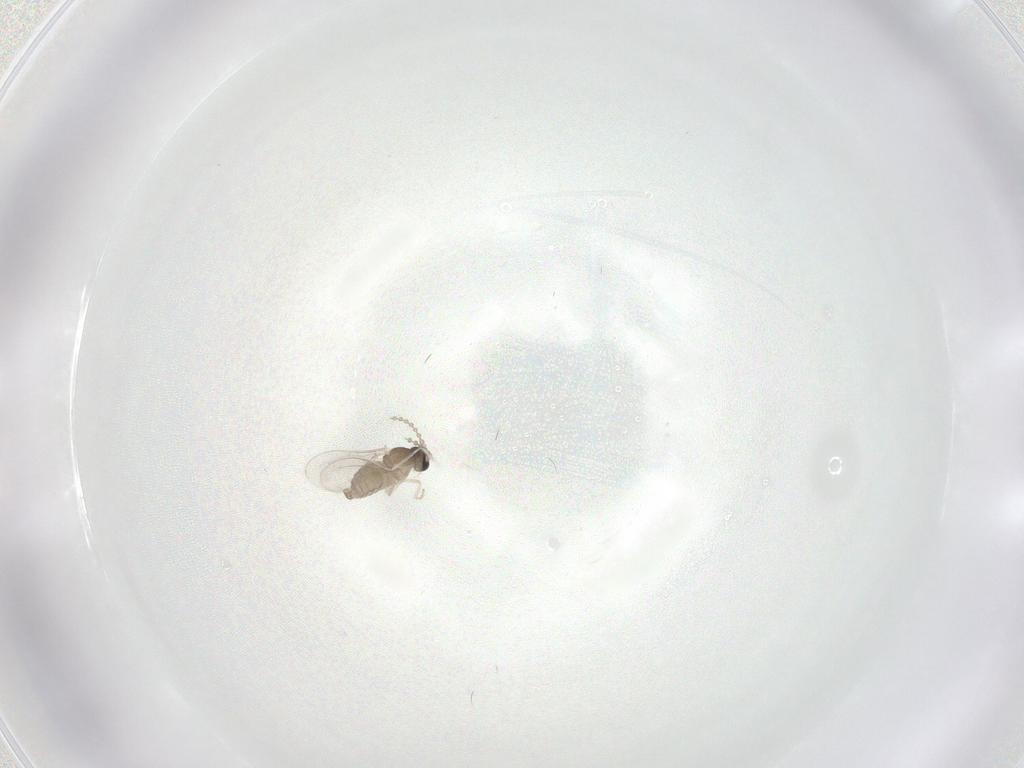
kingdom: Animalia
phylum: Arthropoda
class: Insecta
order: Diptera
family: Cecidomyiidae
